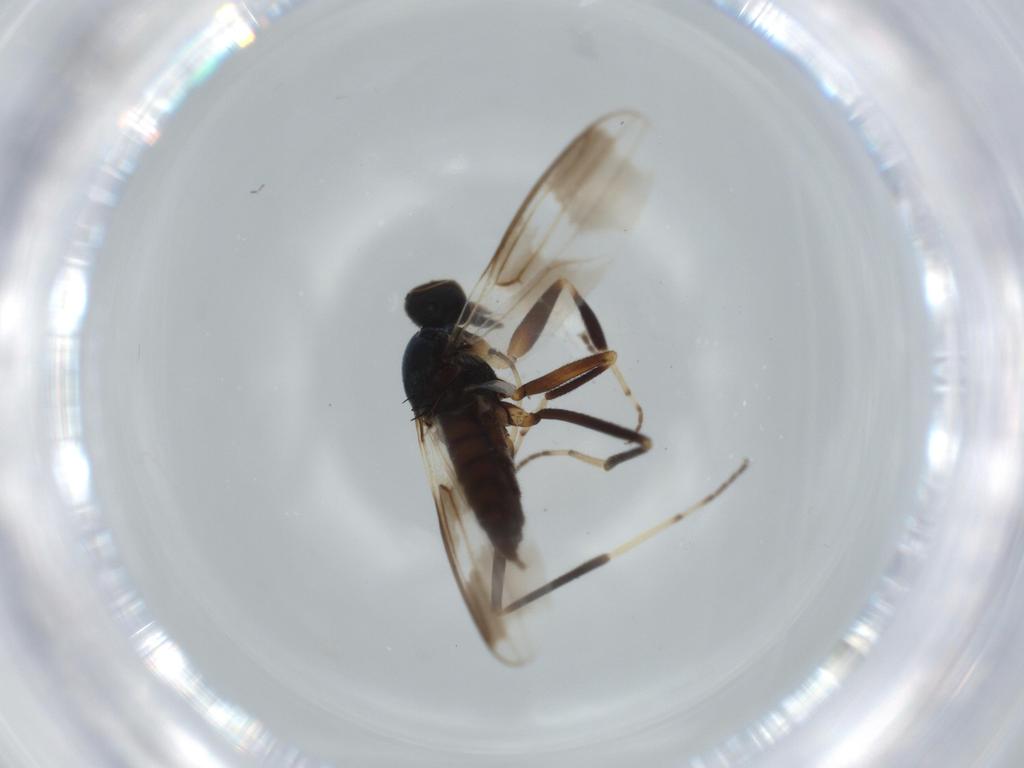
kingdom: Animalia
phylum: Arthropoda
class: Insecta
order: Diptera
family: Hybotidae
